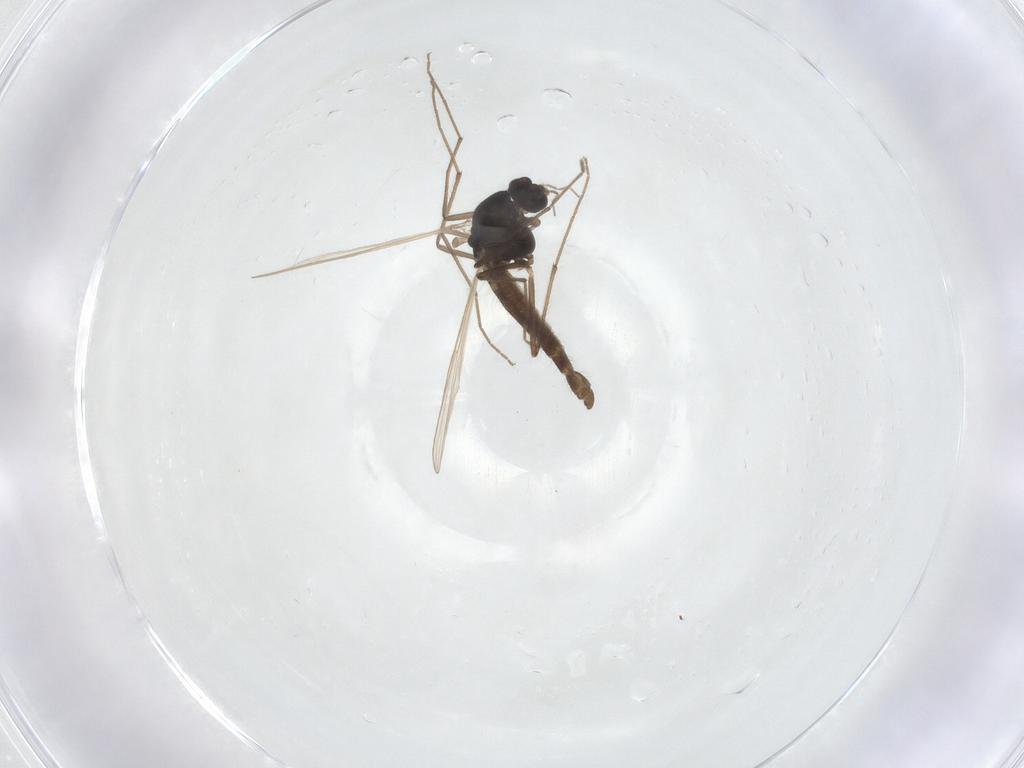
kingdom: Animalia
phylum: Arthropoda
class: Insecta
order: Diptera
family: Chironomidae
